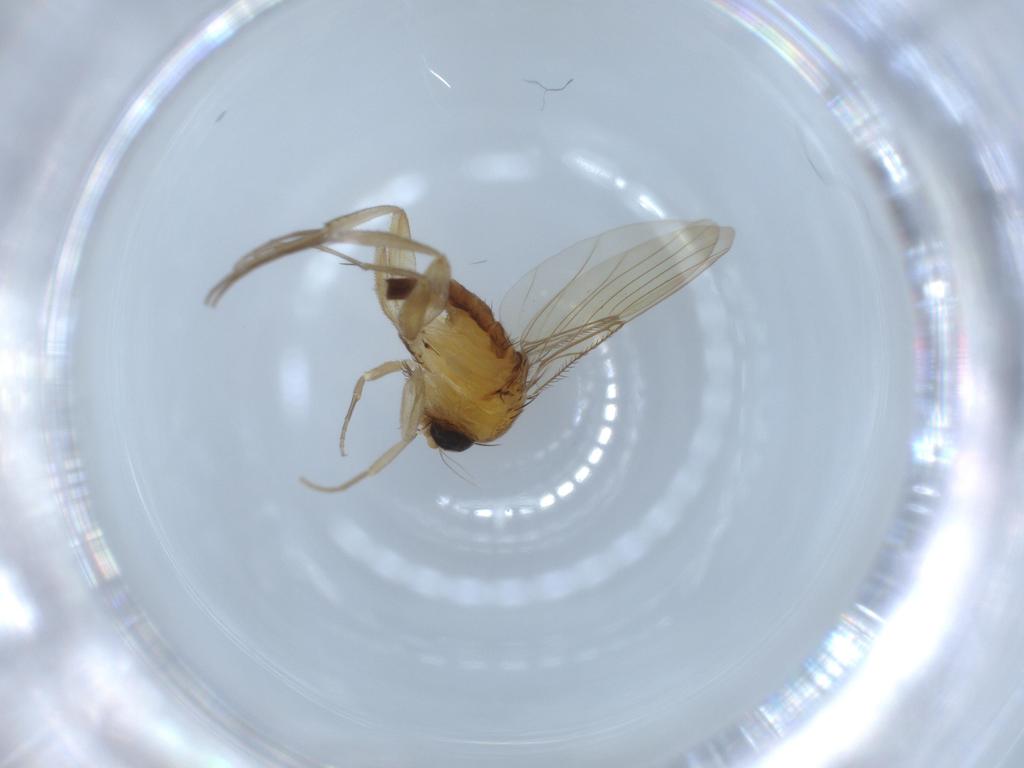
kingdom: Animalia
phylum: Arthropoda
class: Insecta
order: Diptera
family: Phoridae
